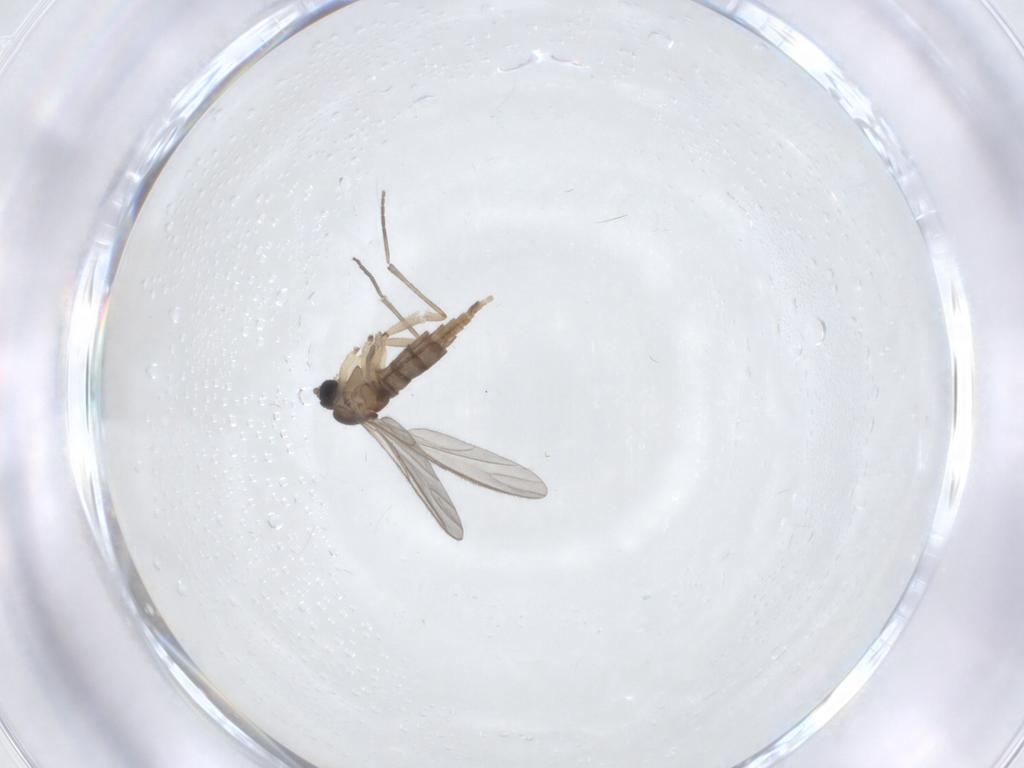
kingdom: Animalia
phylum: Arthropoda
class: Insecta
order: Diptera
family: Sciaridae
